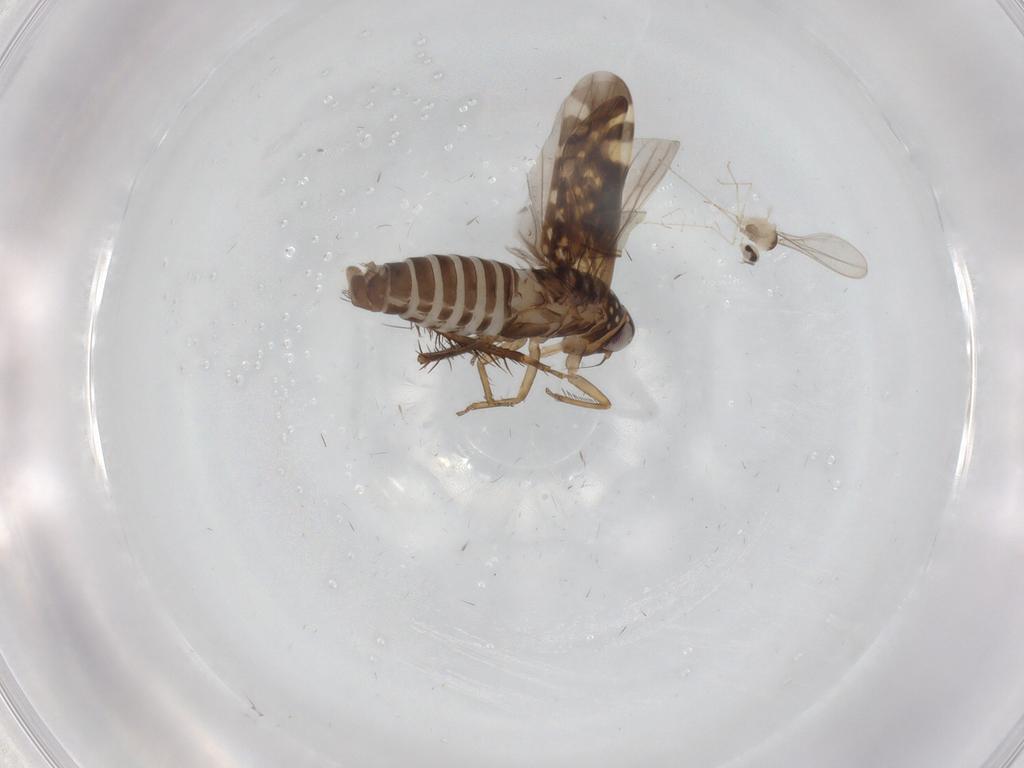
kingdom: Animalia
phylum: Arthropoda
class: Insecta
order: Hemiptera
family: Cicadellidae
